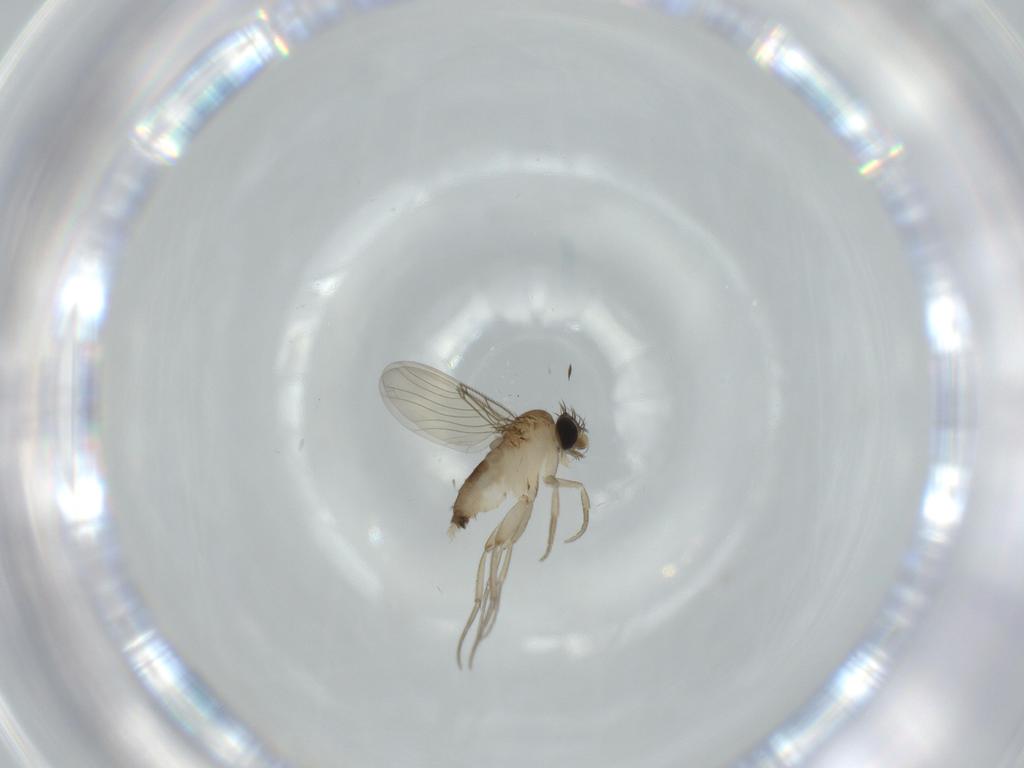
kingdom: Animalia
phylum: Arthropoda
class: Insecta
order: Diptera
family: Phoridae
